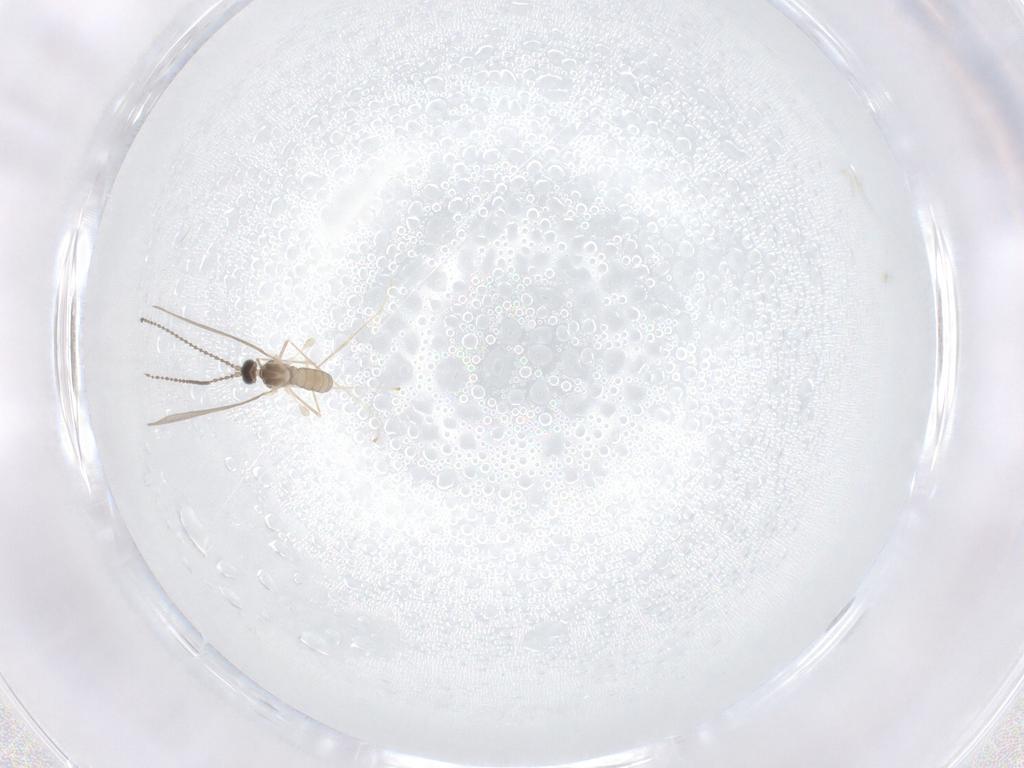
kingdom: Animalia
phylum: Arthropoda
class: Insecta
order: Diptera
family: Cecidomyiidae
